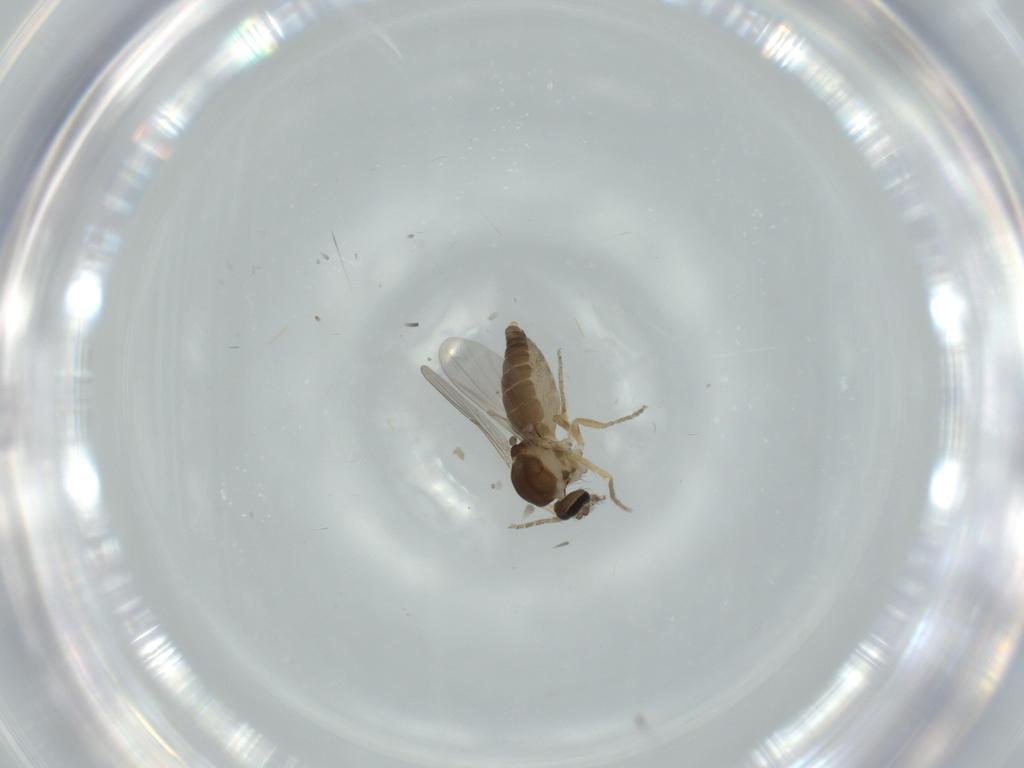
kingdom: Animalia
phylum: Arthropoda
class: Insecta
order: Diptera
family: Ceratopogonidae
